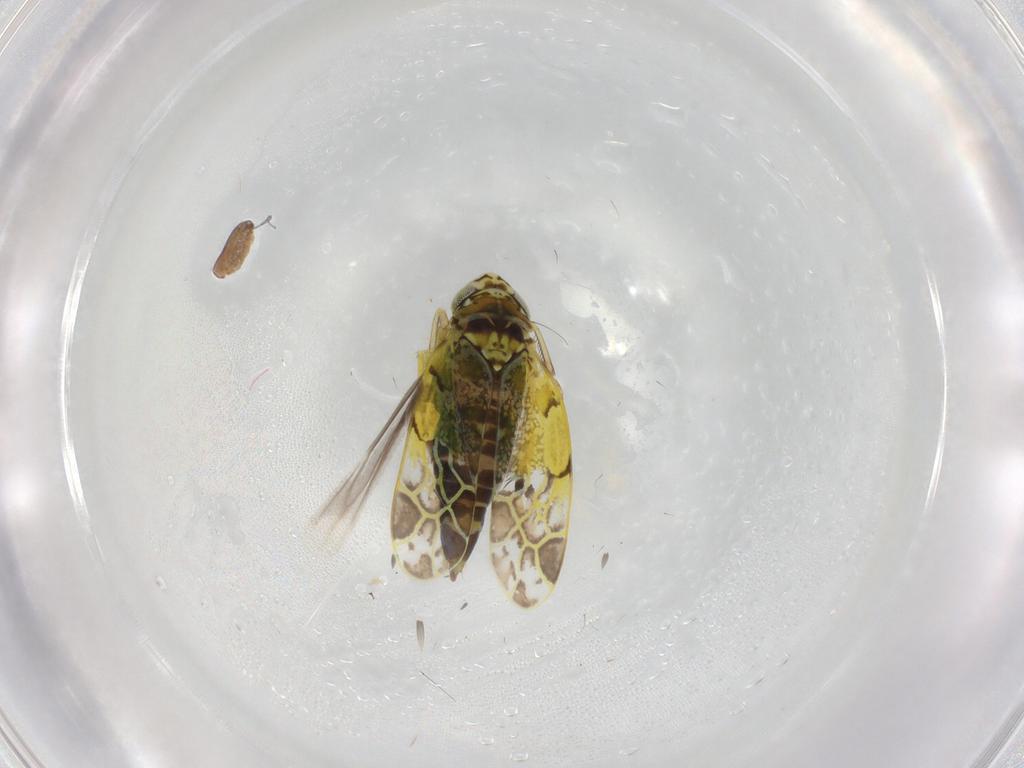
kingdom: Animalia
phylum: Arthropoda
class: Insecta
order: Hemiptera
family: Cicadellidae
